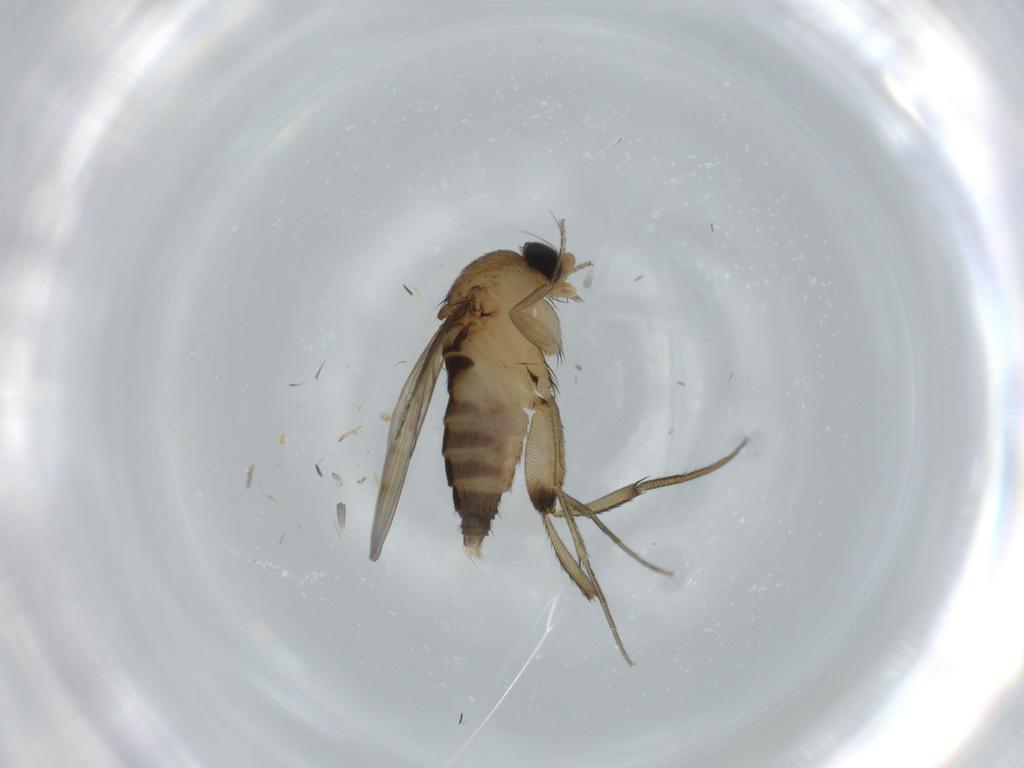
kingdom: Animalia
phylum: Arthropoda
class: Insecta
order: Diptera
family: Phoridae
